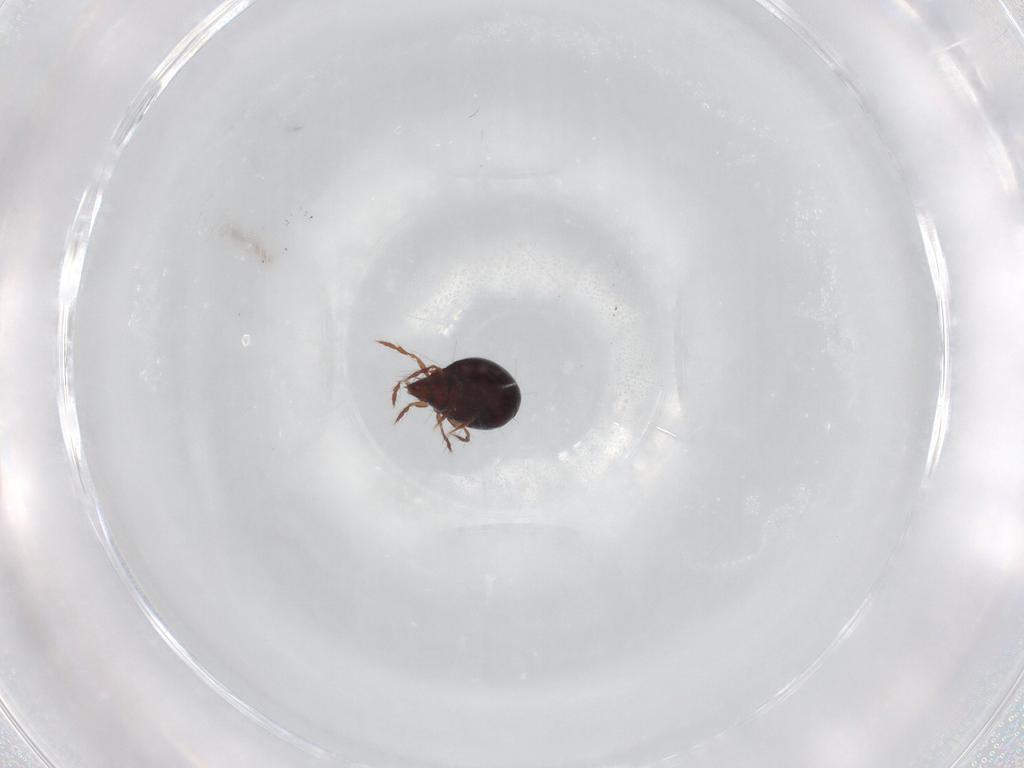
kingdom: Animalia
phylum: Arthropoda
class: Arachnida
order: Sarcoptiformes
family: Ceratoppiidae
